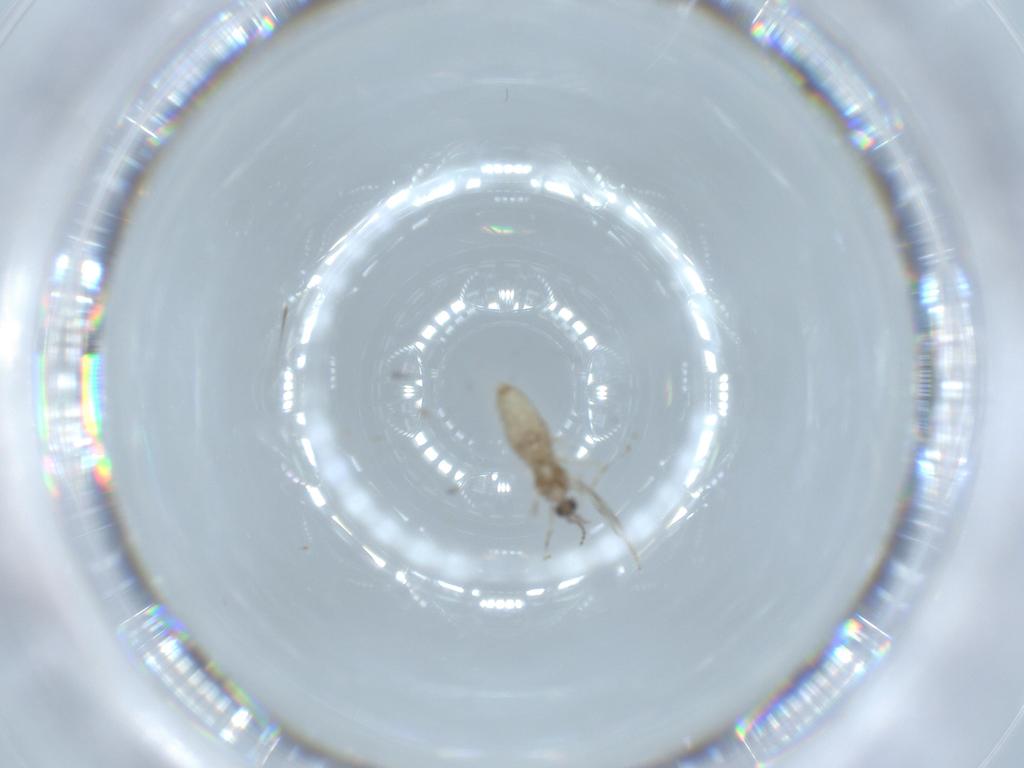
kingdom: Animalia
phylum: Arthropoda
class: Insecta
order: Diptera
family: Cecidomyiidae
